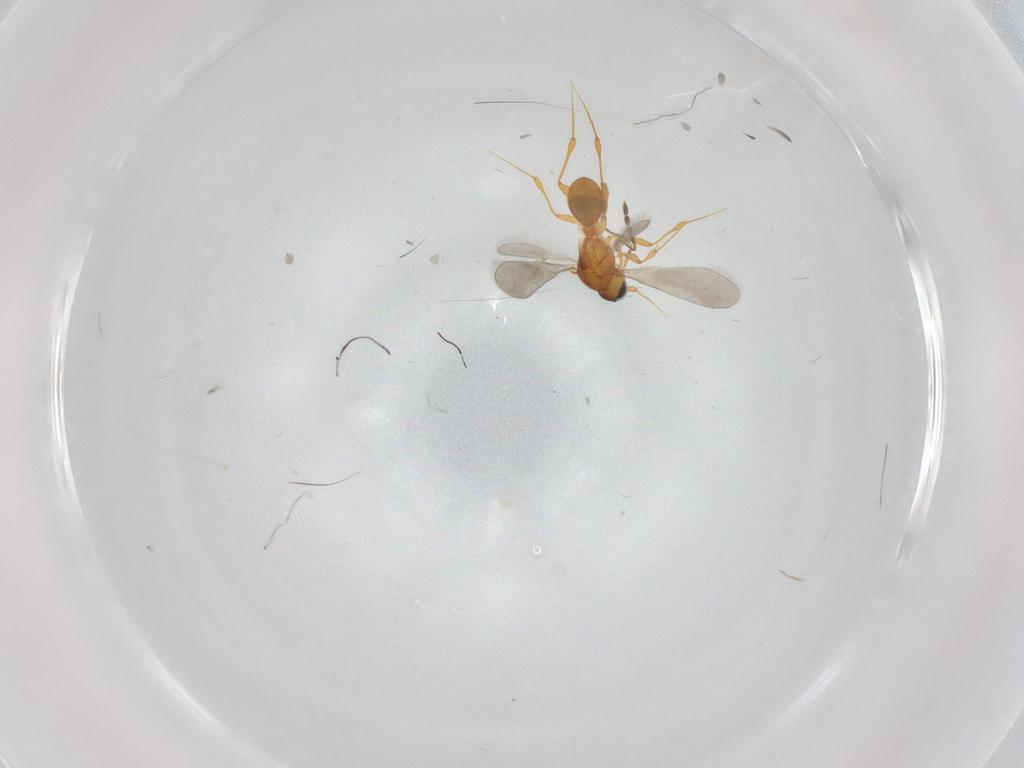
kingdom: Animalia
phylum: Arthropoda
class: Insecta
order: Hymenoptera
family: Platygastridae
